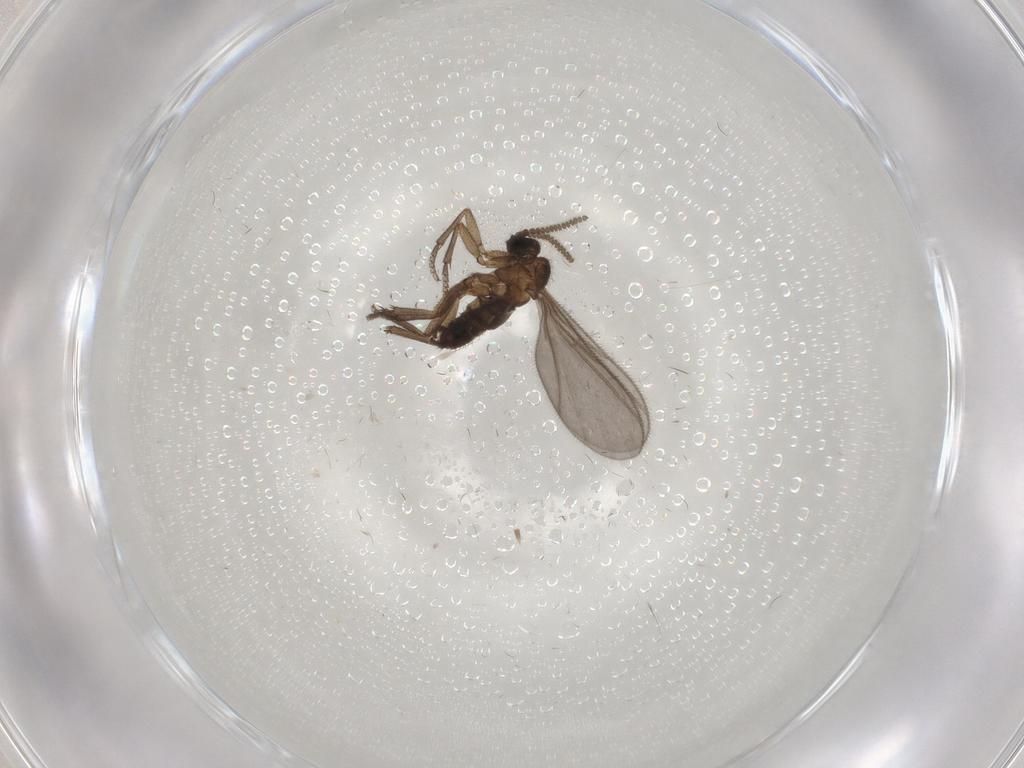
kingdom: Animalia
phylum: Arthropoda
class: Insecta
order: Diptera
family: Sciaridae
